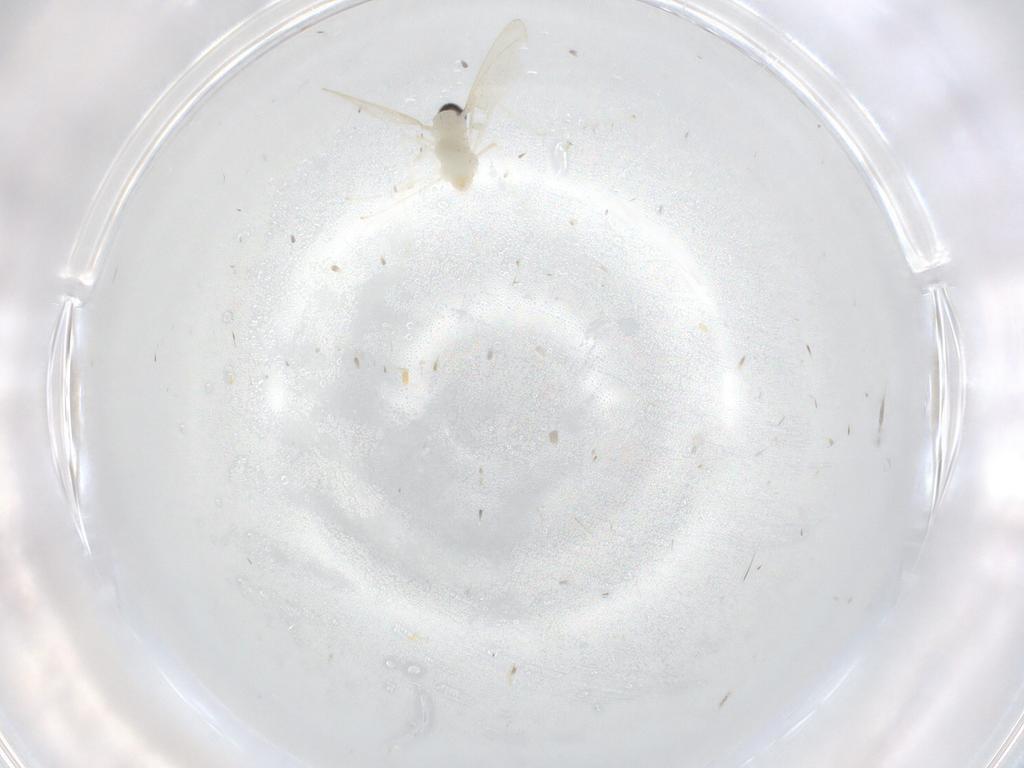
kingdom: Animalia
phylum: Arthropoda
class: Insecta
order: Diptera
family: Cecidomyiidae
